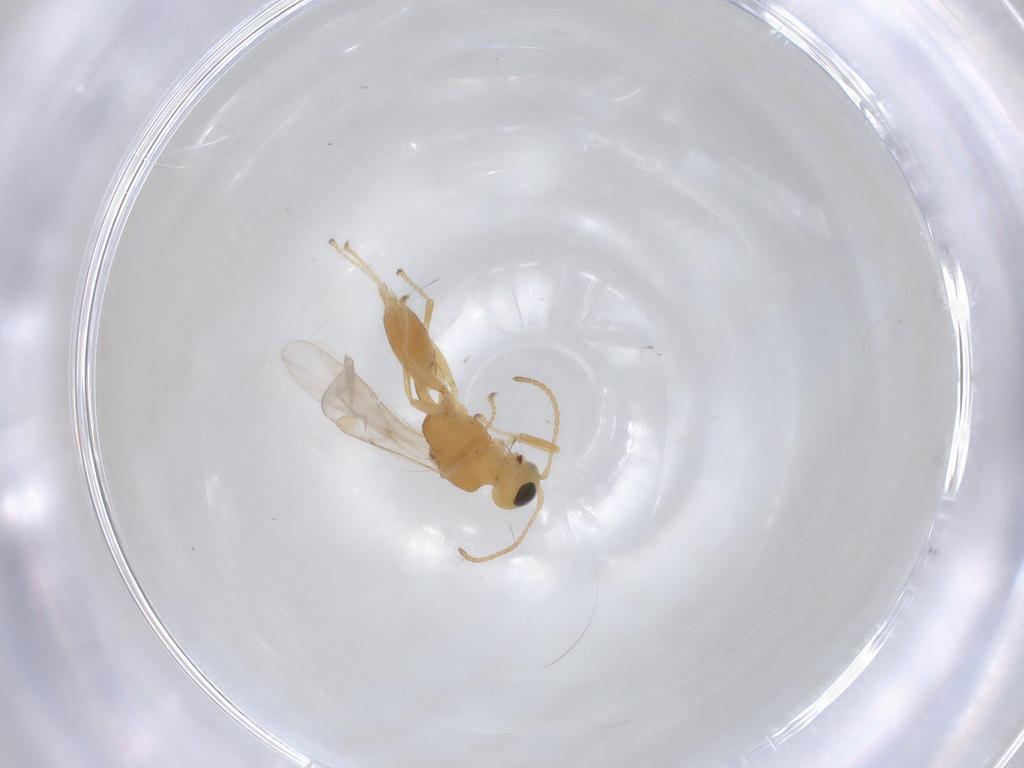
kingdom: Animalia
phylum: Arthropoda
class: Insecta
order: Hymenoptera
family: Braconidae
